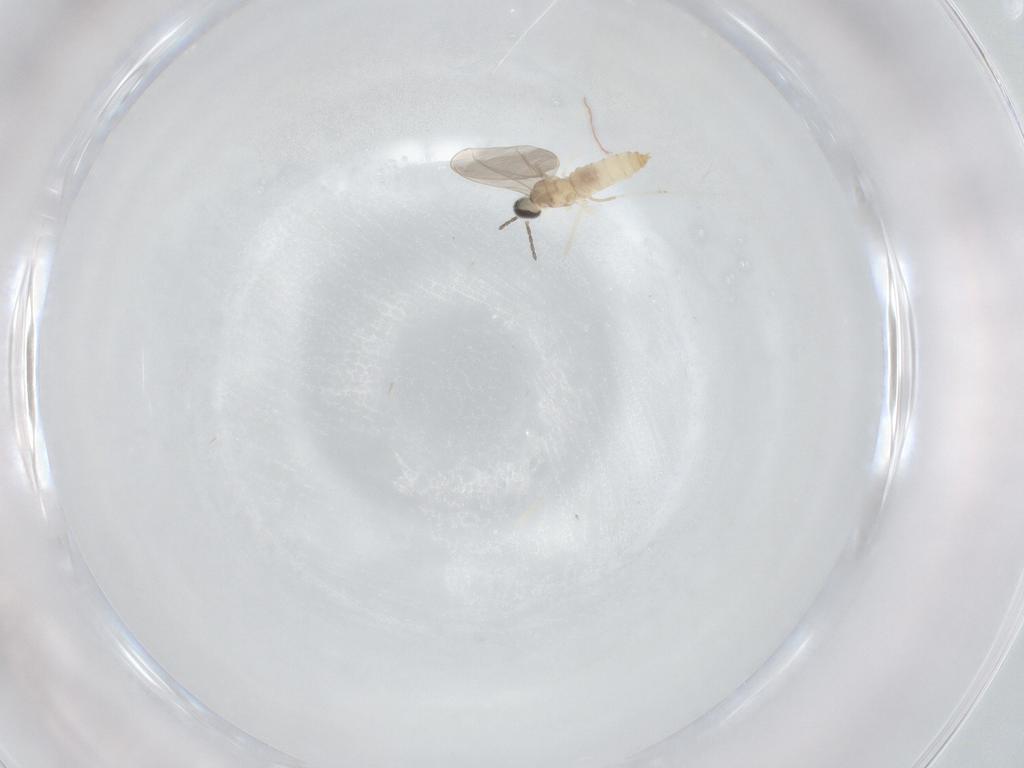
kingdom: Animalia
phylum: Arthropoda
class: Insecta
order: Diptera
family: Cecidomyiidae
